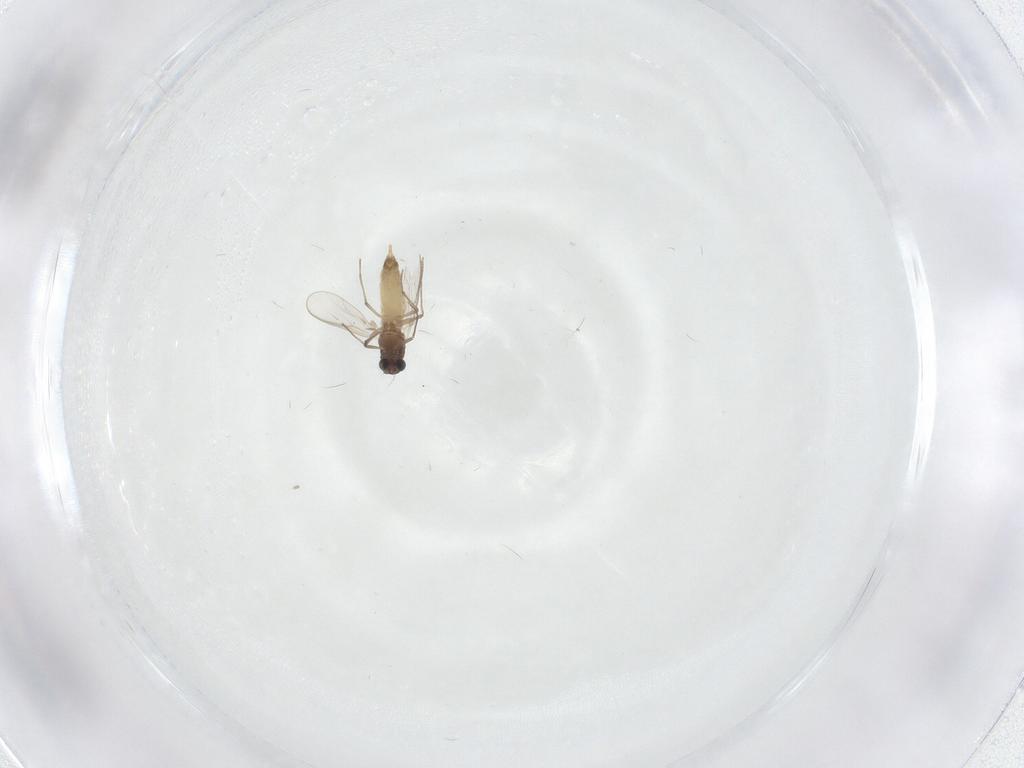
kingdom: Animalia
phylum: Arthropoda
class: Insecta
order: Diptera
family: Chironomidae
